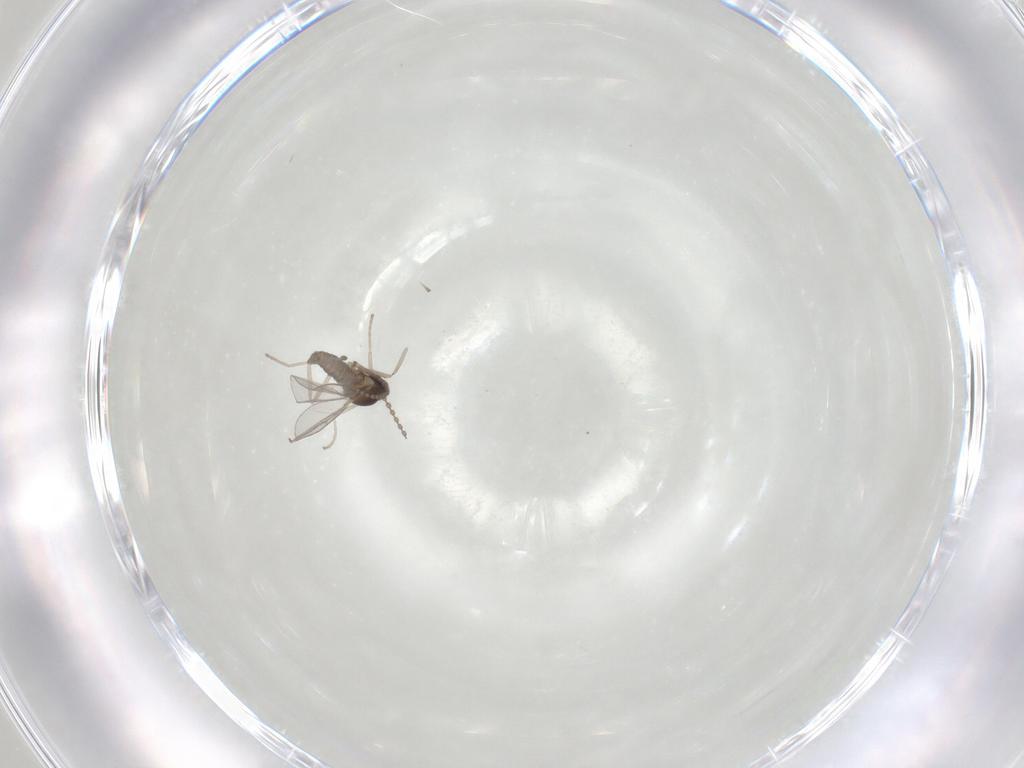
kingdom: Animalia
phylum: Arthropoda
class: Insecta
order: Diptera
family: Cecidomyiidae
